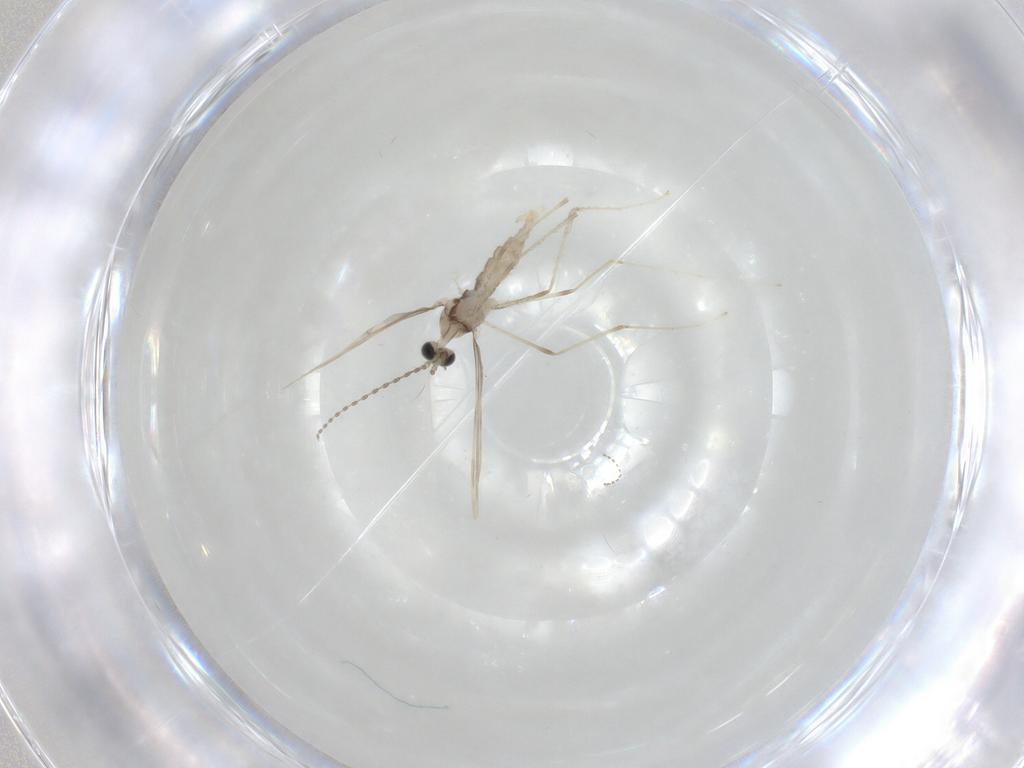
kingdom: Animalia
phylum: Arthropoda
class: Insecta
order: Diptera
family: Cecidomyiidae
